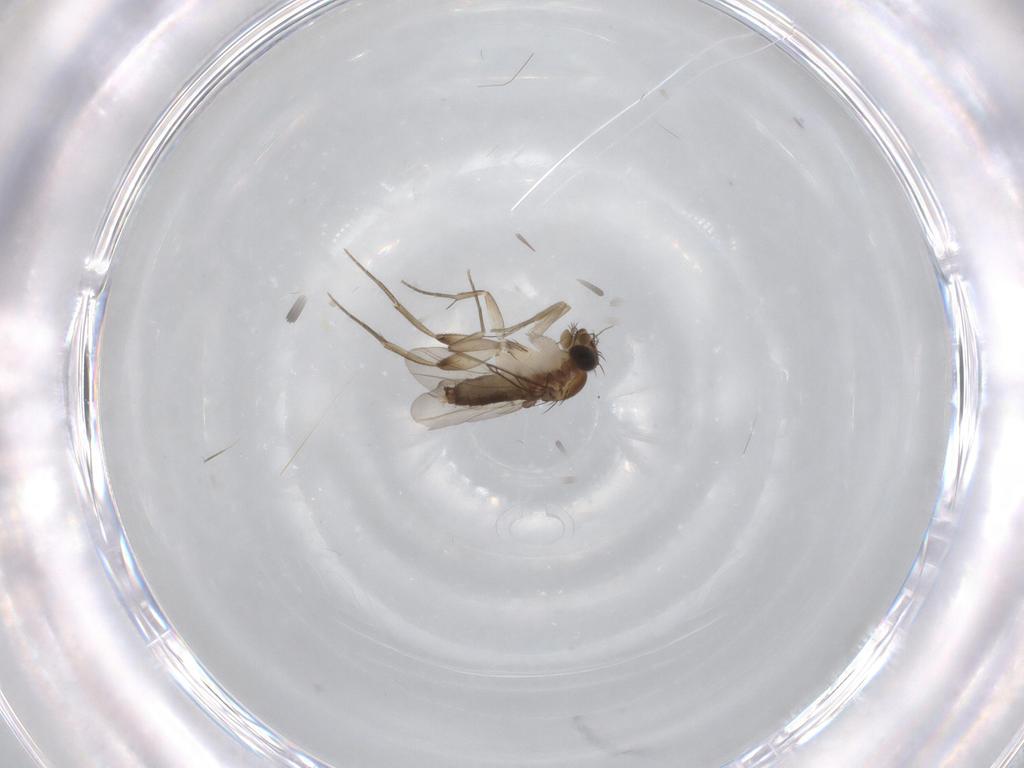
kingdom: Animalia
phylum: Arthropoda
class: Insecta
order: Diptera
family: Phoridae
